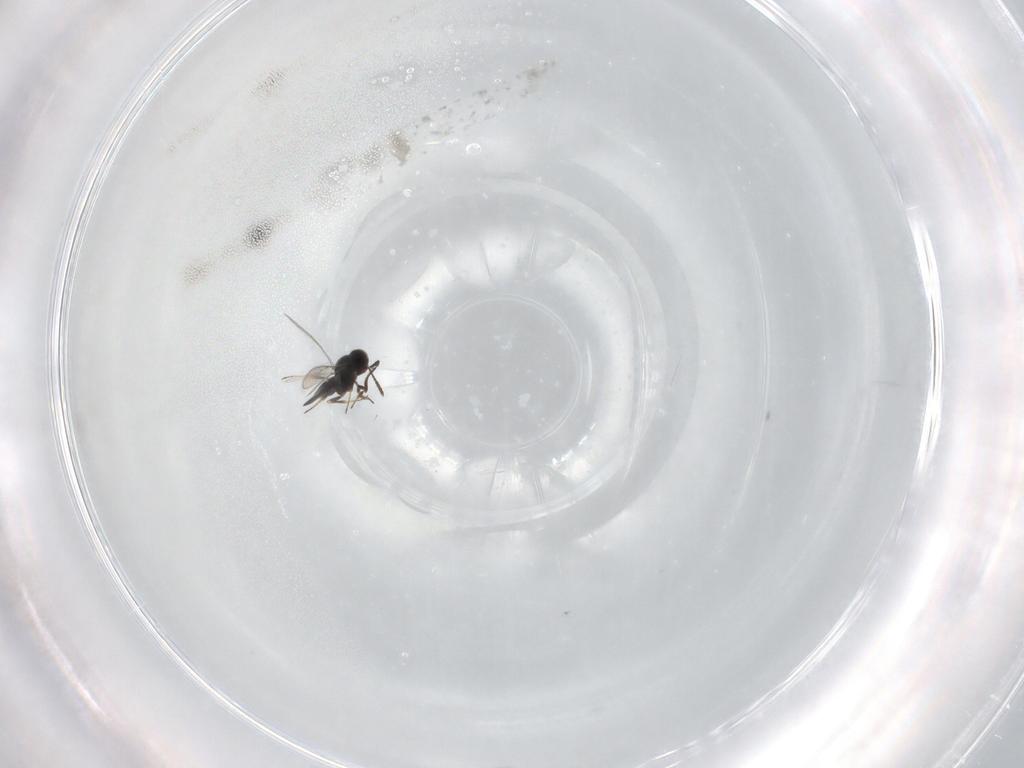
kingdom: Animalia
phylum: Arthropoda
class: Insecta
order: Hymenoptera
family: Scelionidae
